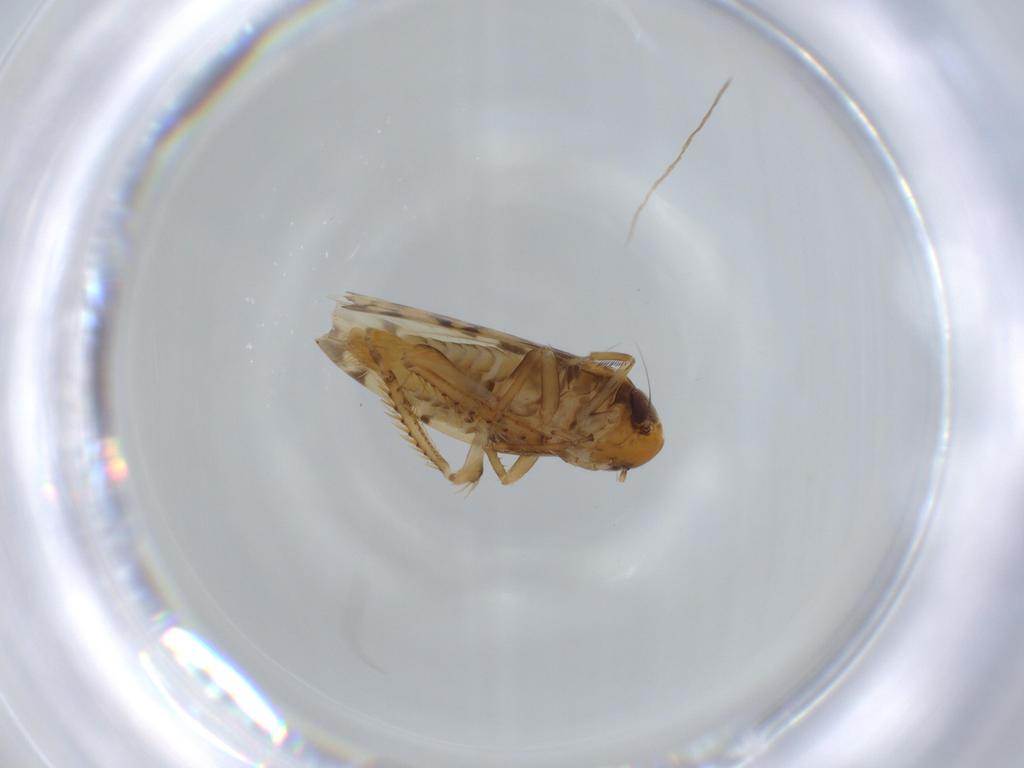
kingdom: Animalia
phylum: Arthropoda
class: Insecta
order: Hemiptera
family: Cicadellidae
